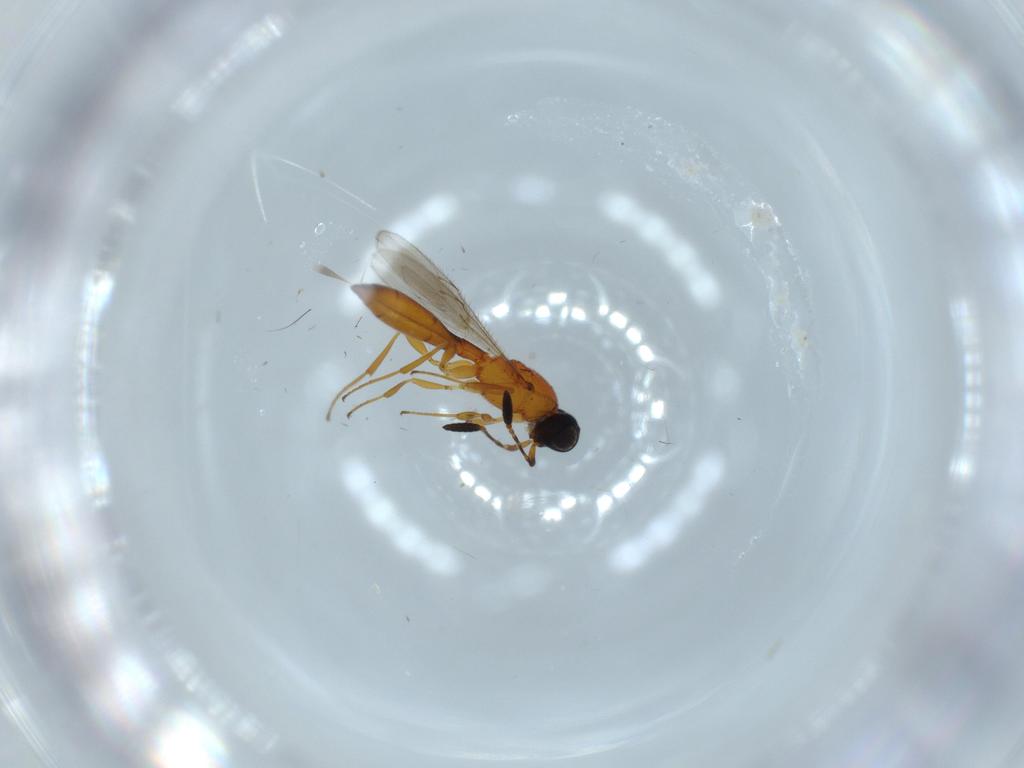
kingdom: Animalia
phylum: Arthropoda
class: Insecta
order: Hymenoptera
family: Scelionidae
